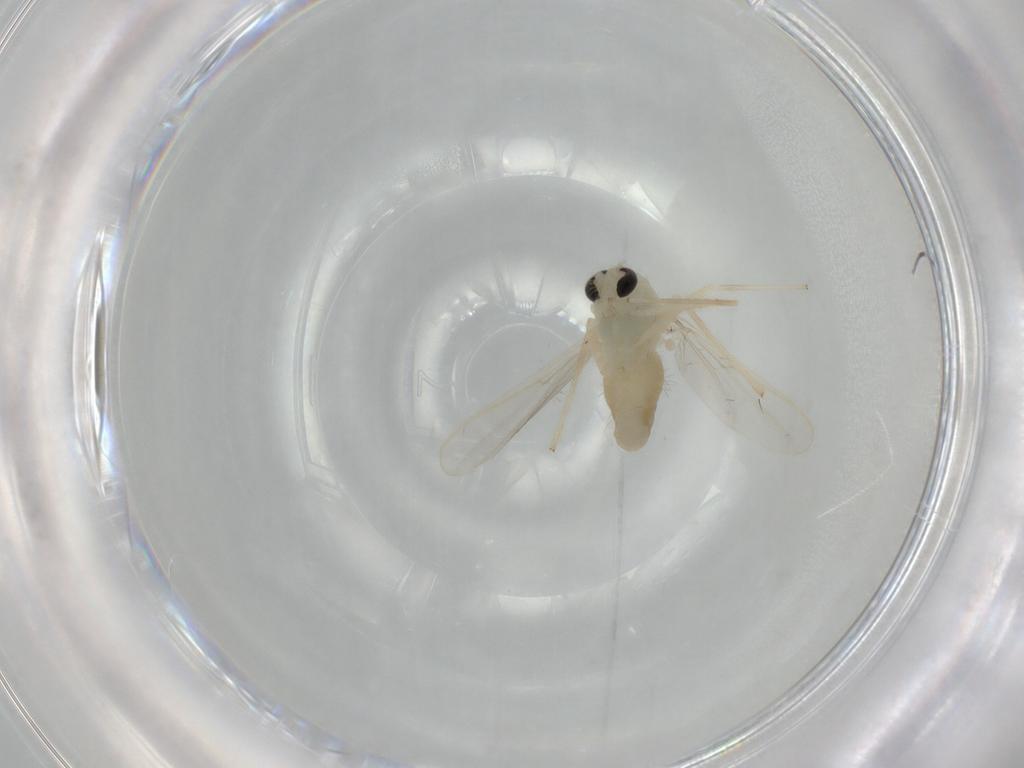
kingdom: Animalia
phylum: Arthropoda
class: Insecta
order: Diptera
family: Chironomidae
